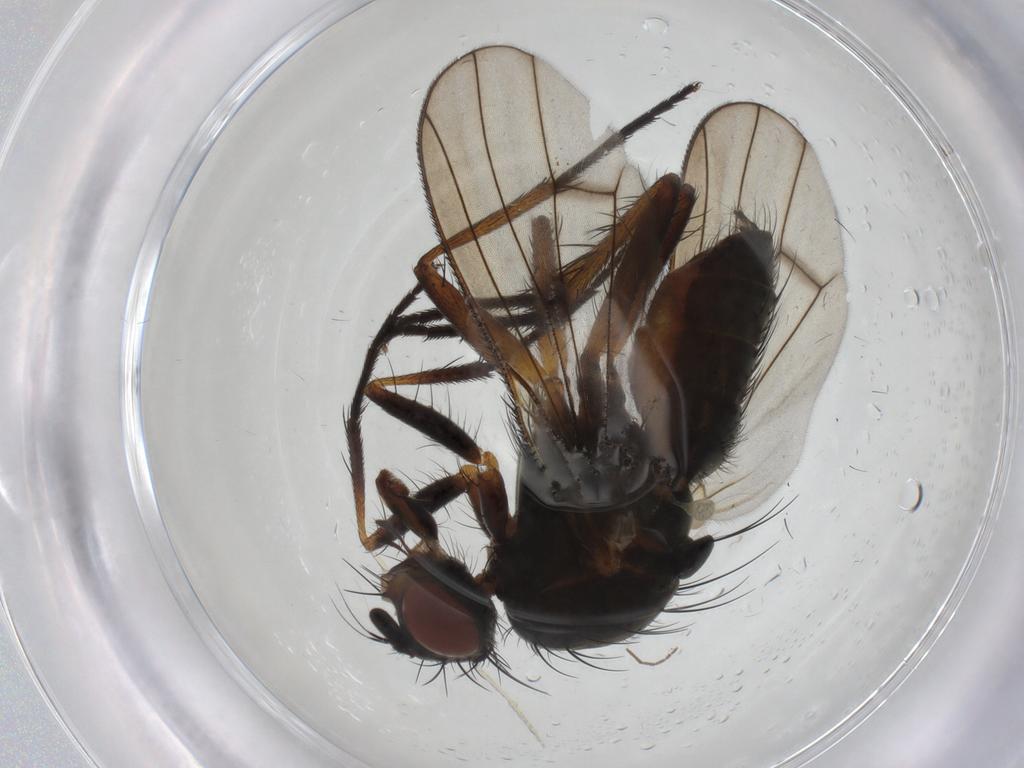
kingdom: Animalia
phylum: Arthropoda
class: Insecta
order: Diptera
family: Anthomyiidae
